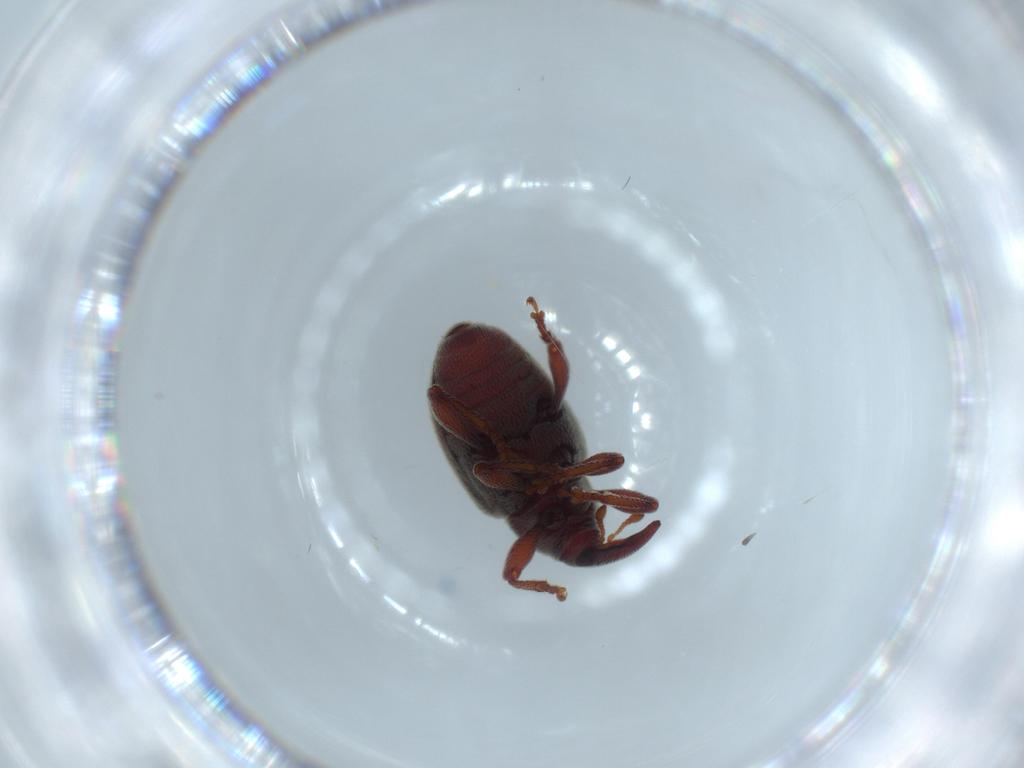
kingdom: Animalia
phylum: Arthropoda
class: Insecta
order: Coleoptera
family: Curculionidae
